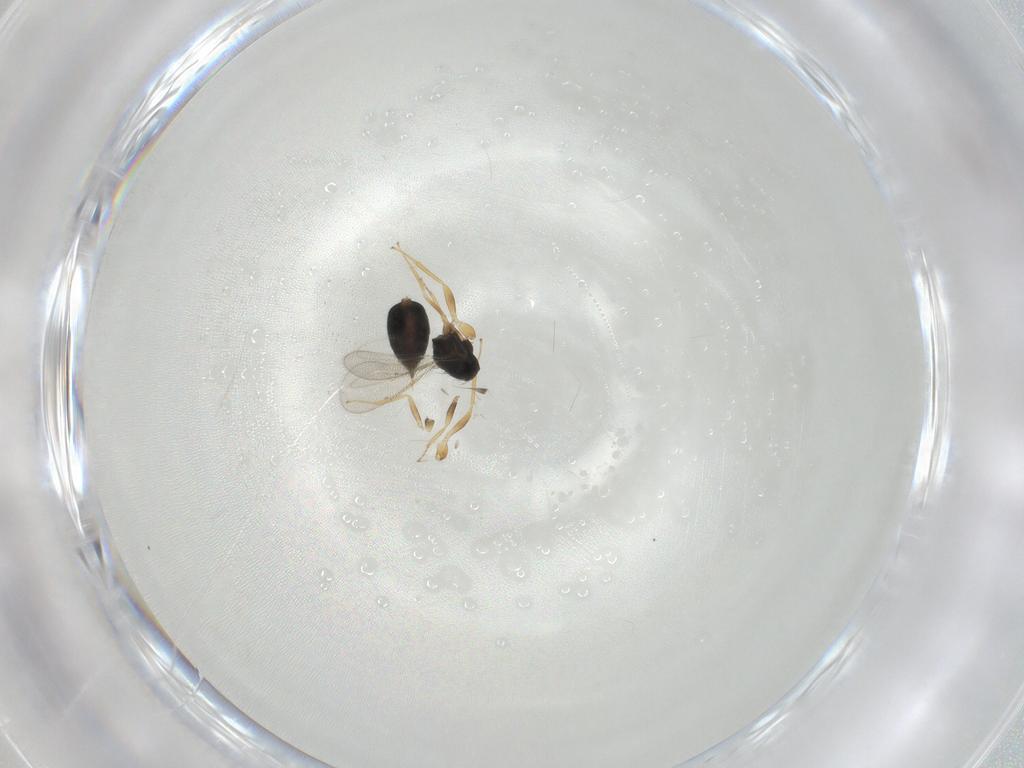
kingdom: Animalia
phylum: Arthropoda
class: Insecta
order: Hymenoptera
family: Eulophidae
